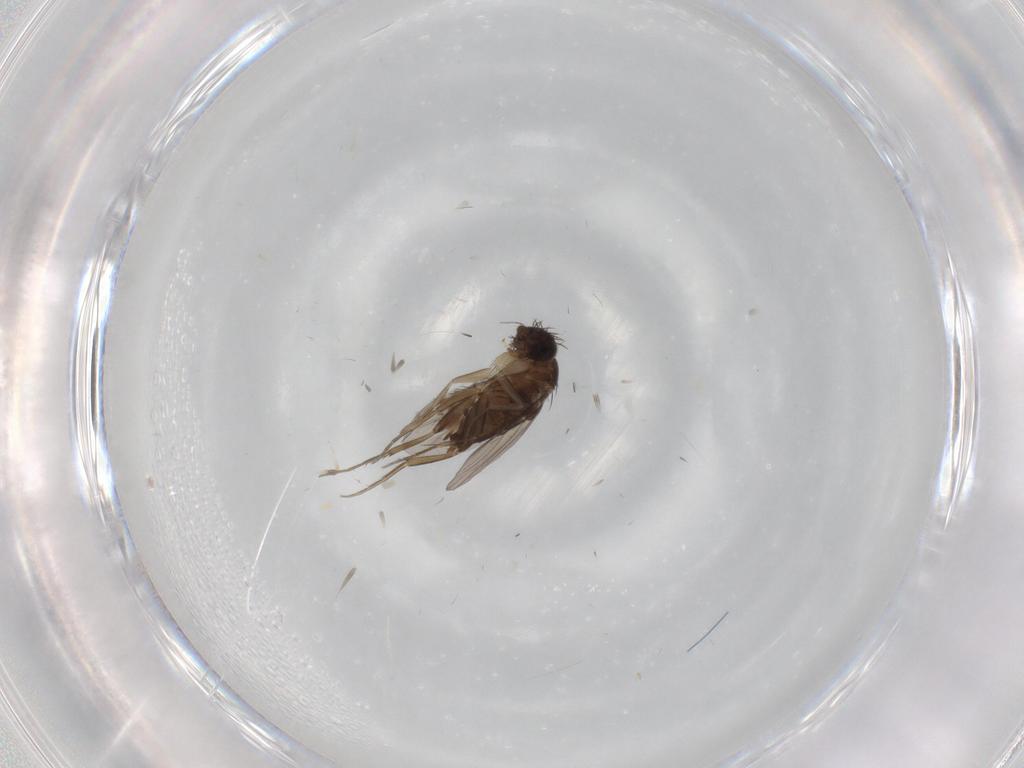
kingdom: Animalia
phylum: Arthropoda
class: Insecta
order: Diptera
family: Phoridae
